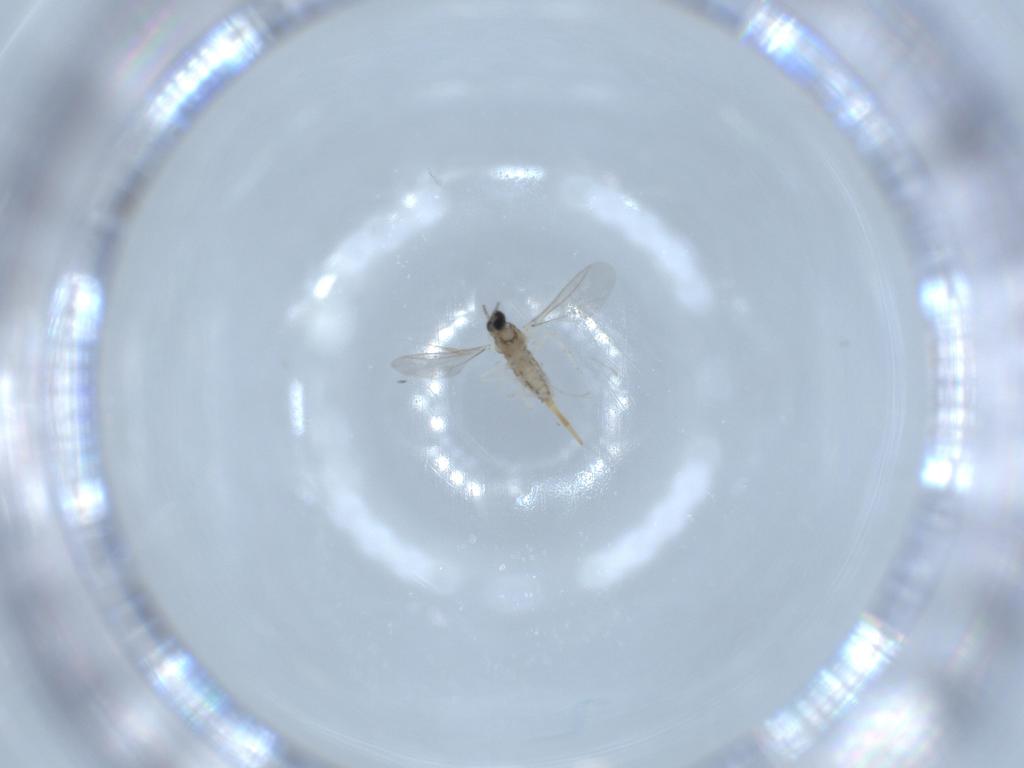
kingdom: Animalia
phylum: Arthropoda
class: Insecta
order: Diptera
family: Cecidomyiidae
